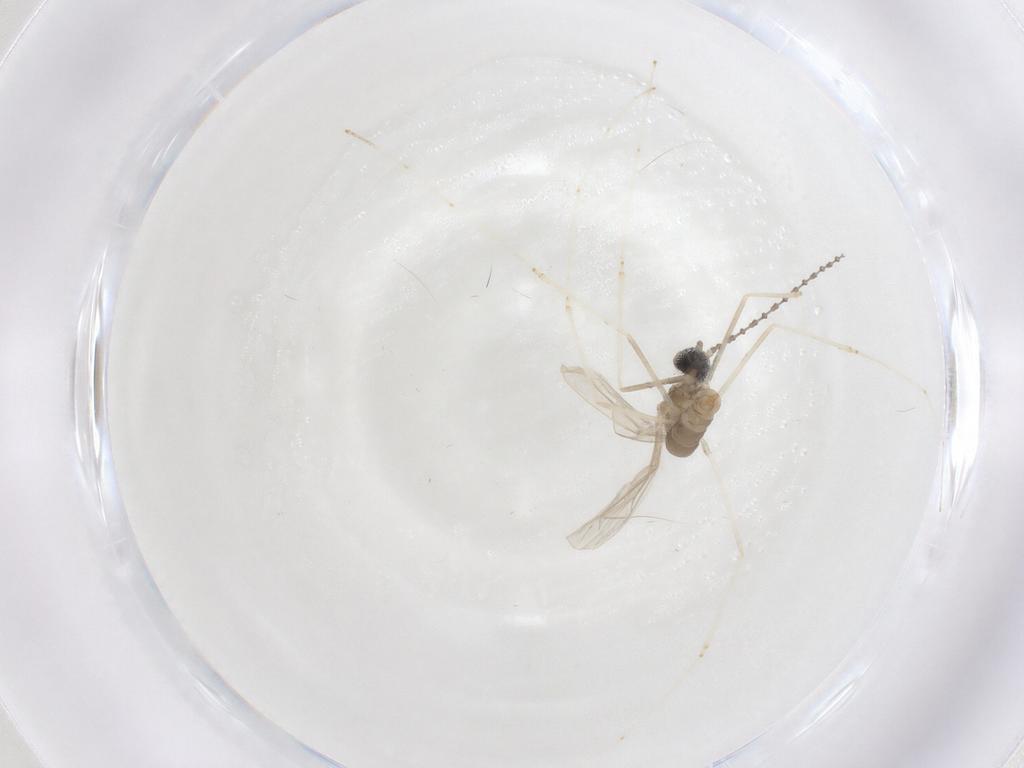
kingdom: Animalia
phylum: Arthropoda
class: Insecta
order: Diptera
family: Cecidomyiidae
